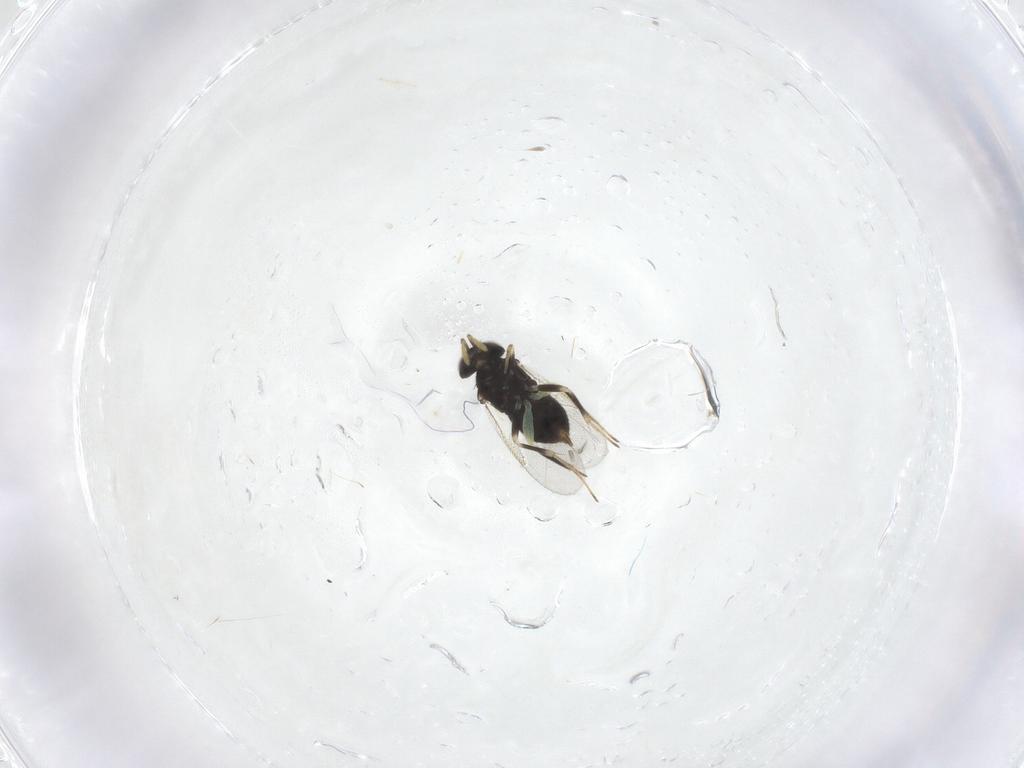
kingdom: Animalia
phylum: Arthropoda
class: Insecta
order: Hymenoptera
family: Aphelinidae
